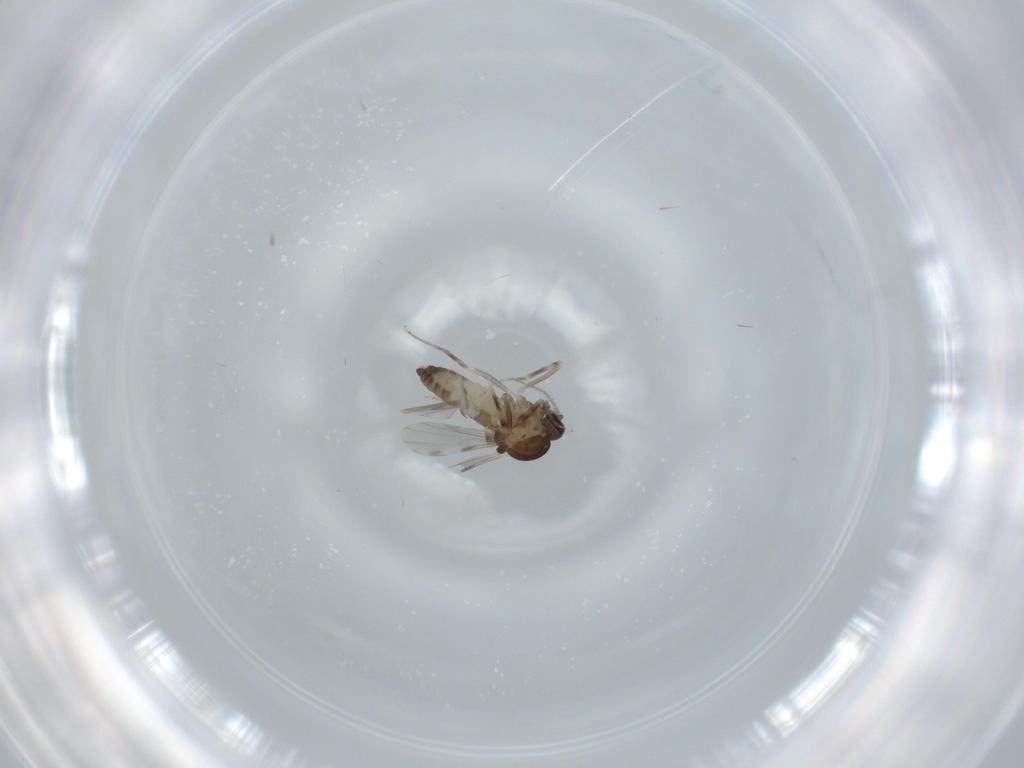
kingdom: Animalia
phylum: Arthropoda
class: Insecta
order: Diptera
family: Ceratopogonidae
